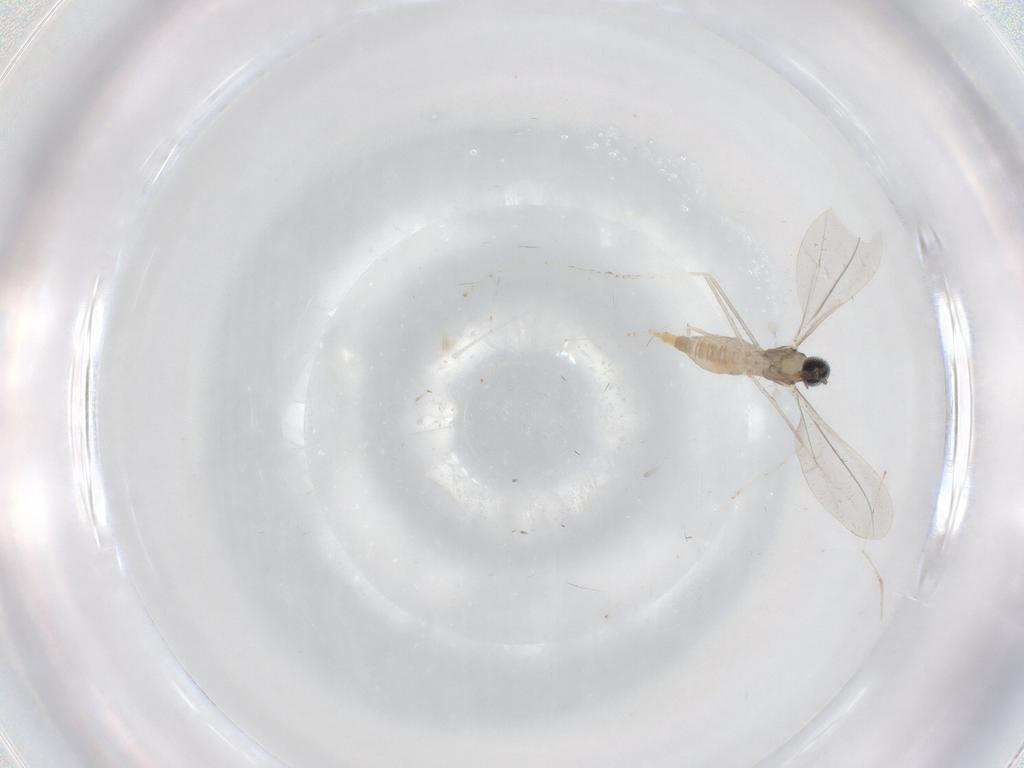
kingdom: Animalia
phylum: Arthropoda
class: Insecta
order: Diptera
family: Cecidomyiidae
